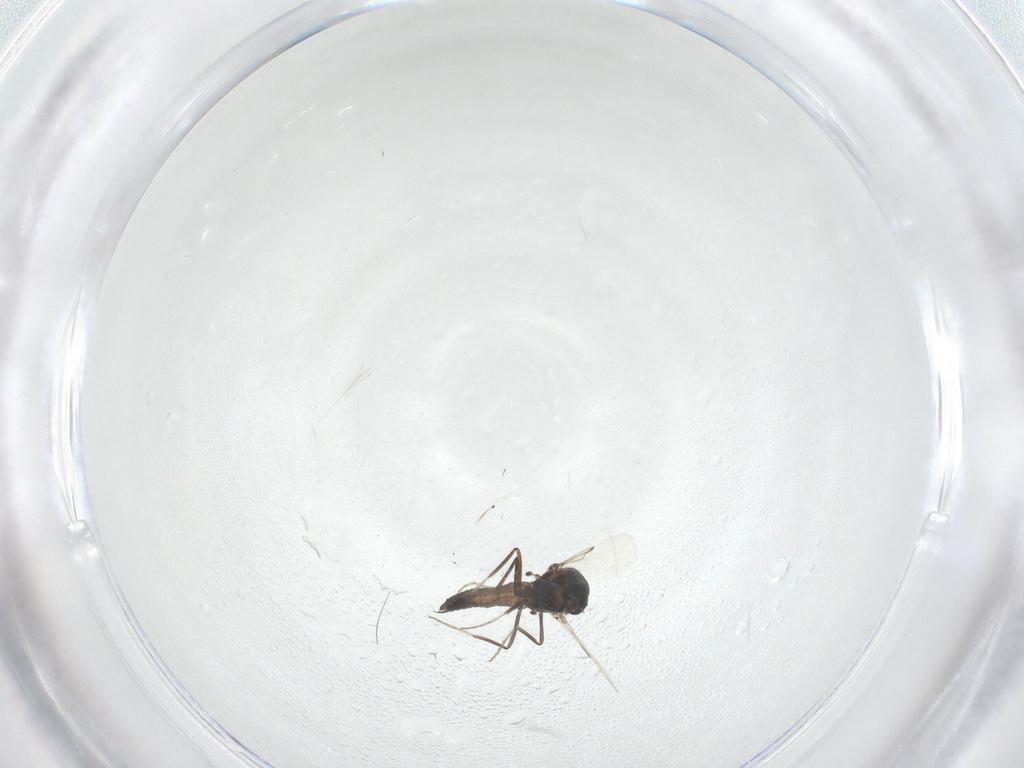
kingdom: Animalia
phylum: Arthropoda
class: Insecta
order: Diptera
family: Ceratopogonidae
